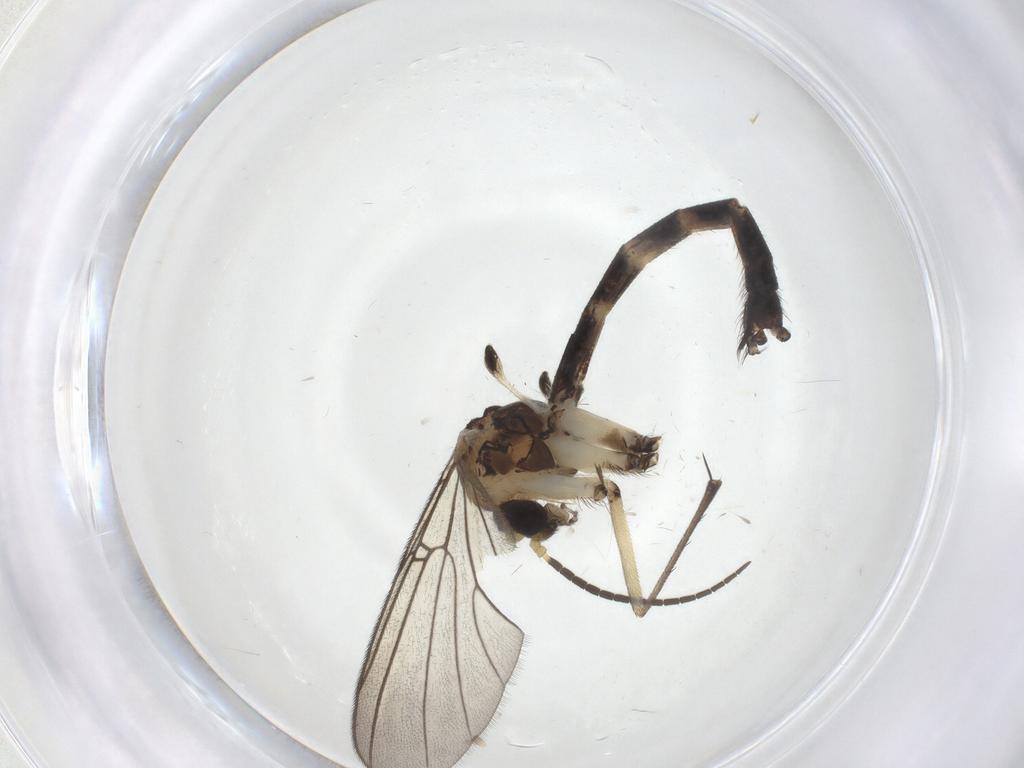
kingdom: Animalia
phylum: Arthropoda
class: Insecta
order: Diptera
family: Mycetophilidae
